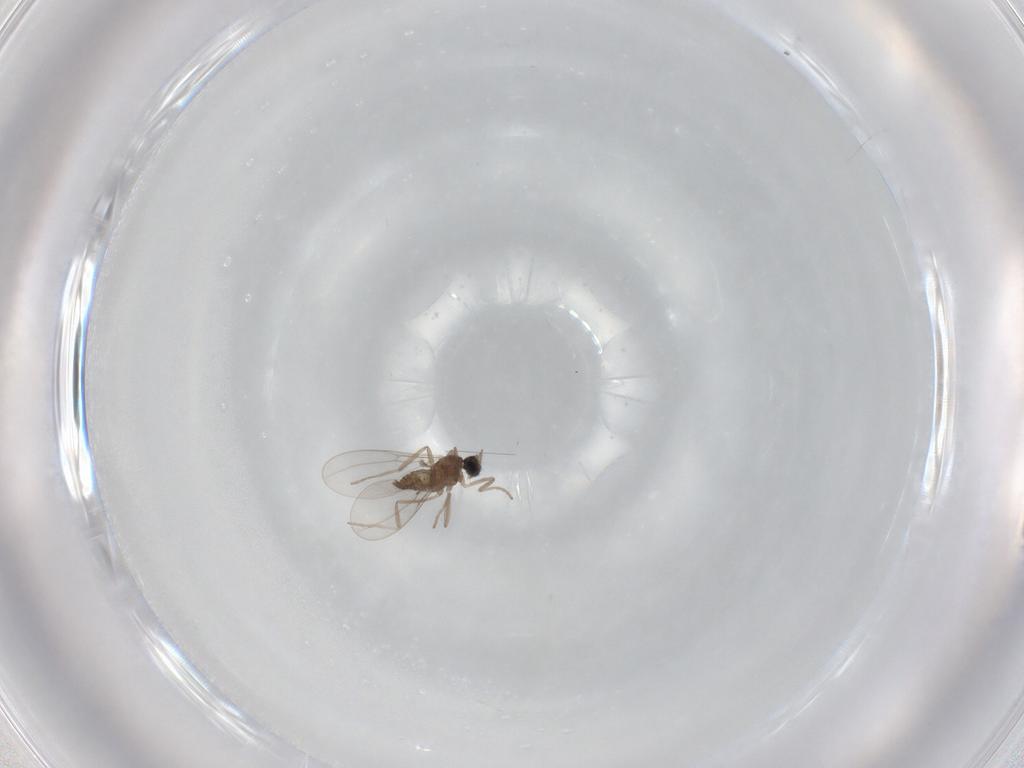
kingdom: Animalia
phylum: Arthropoda
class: Insecta
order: Diptera
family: Cecidomyiidae
